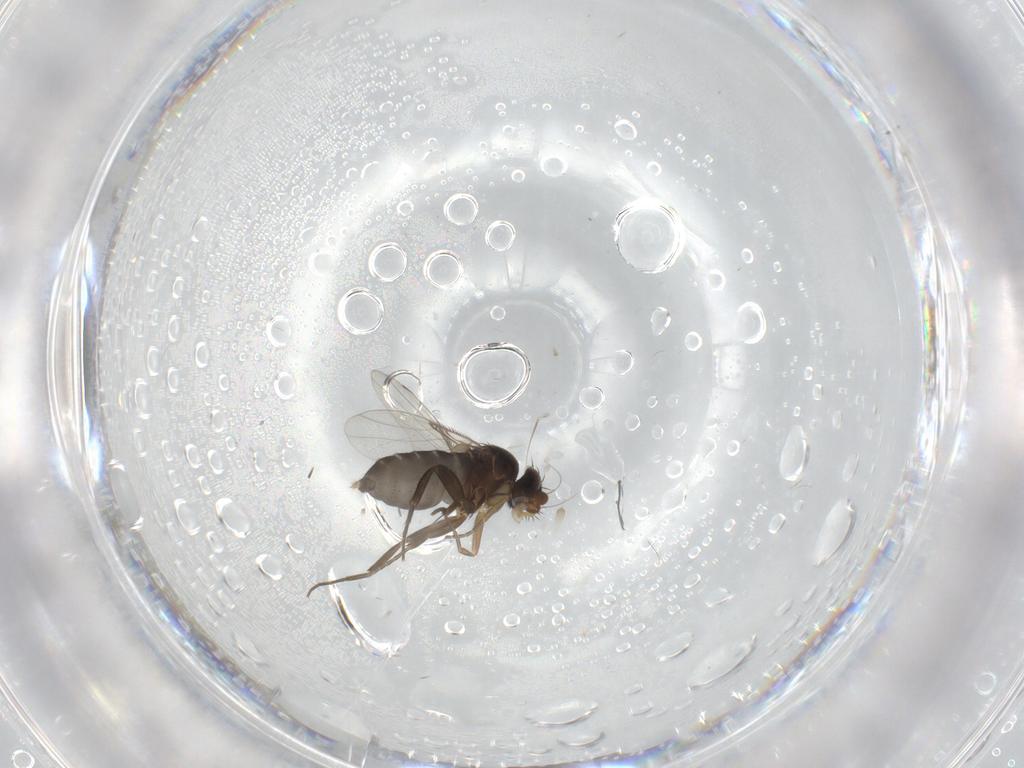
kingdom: Animalia
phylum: Arthropoda
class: Insecta
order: Diptera
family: Phoridae
